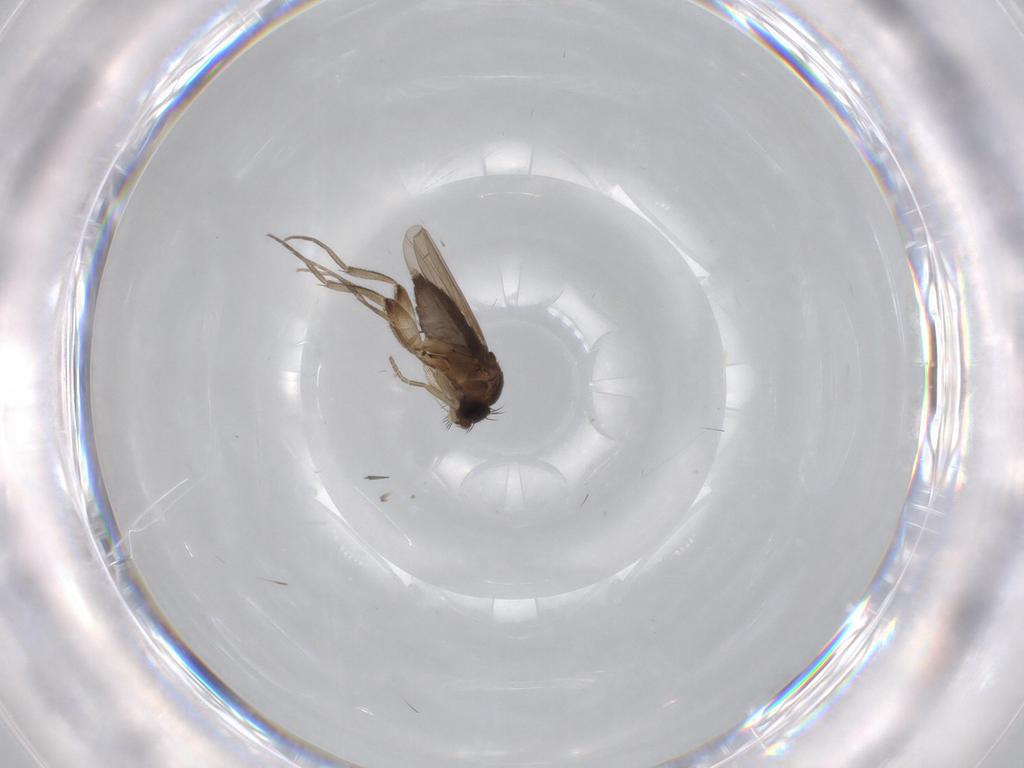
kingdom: Animalia
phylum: Arthropoda
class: Insecta
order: Diptera
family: Phoridae
